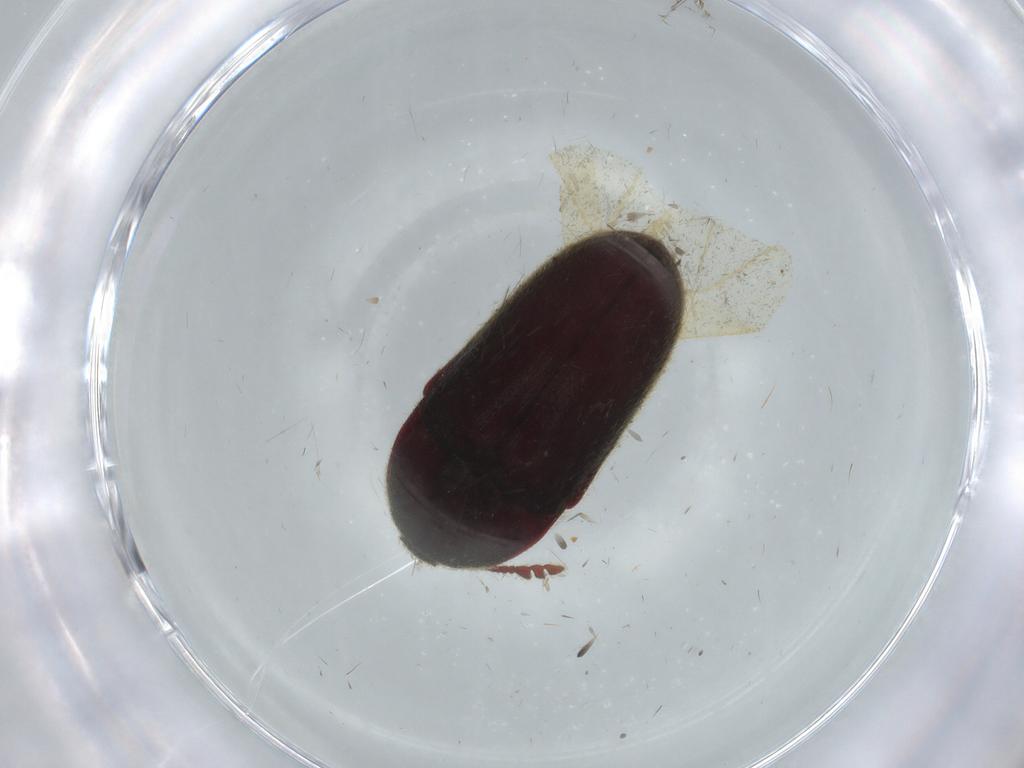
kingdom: Animalia
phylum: Arthropoda
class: Insecta
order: Coleoptera
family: Throscidae
